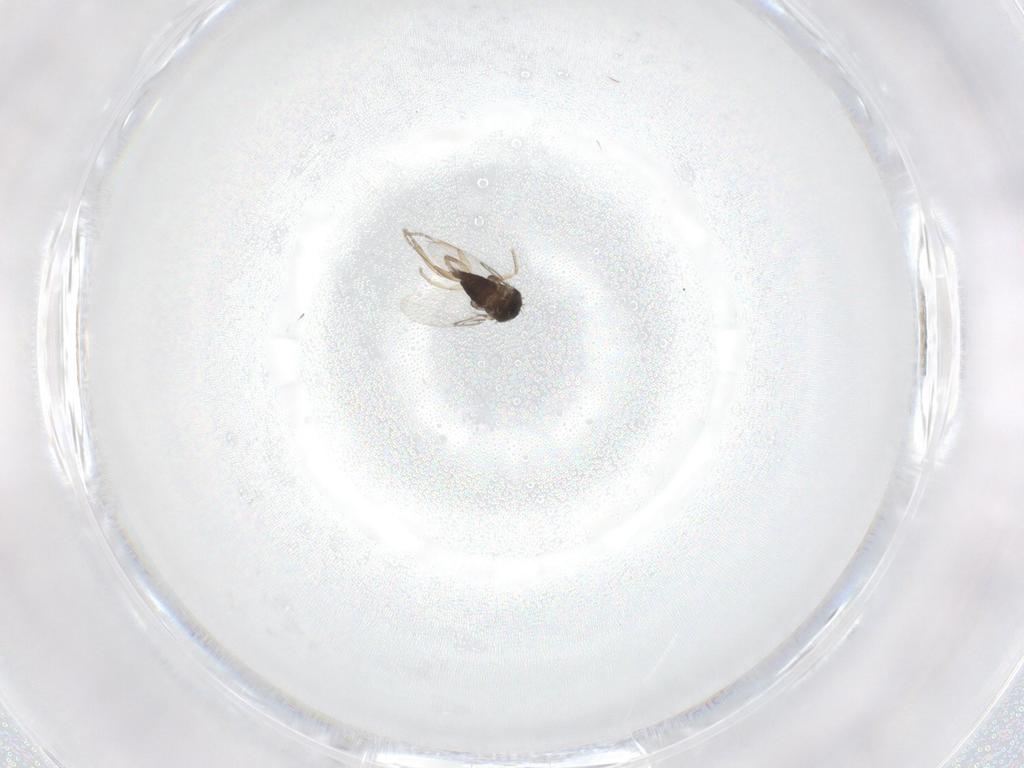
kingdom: Animalia
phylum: Arthropoda
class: Insecta
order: Diptera
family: Phoridae
